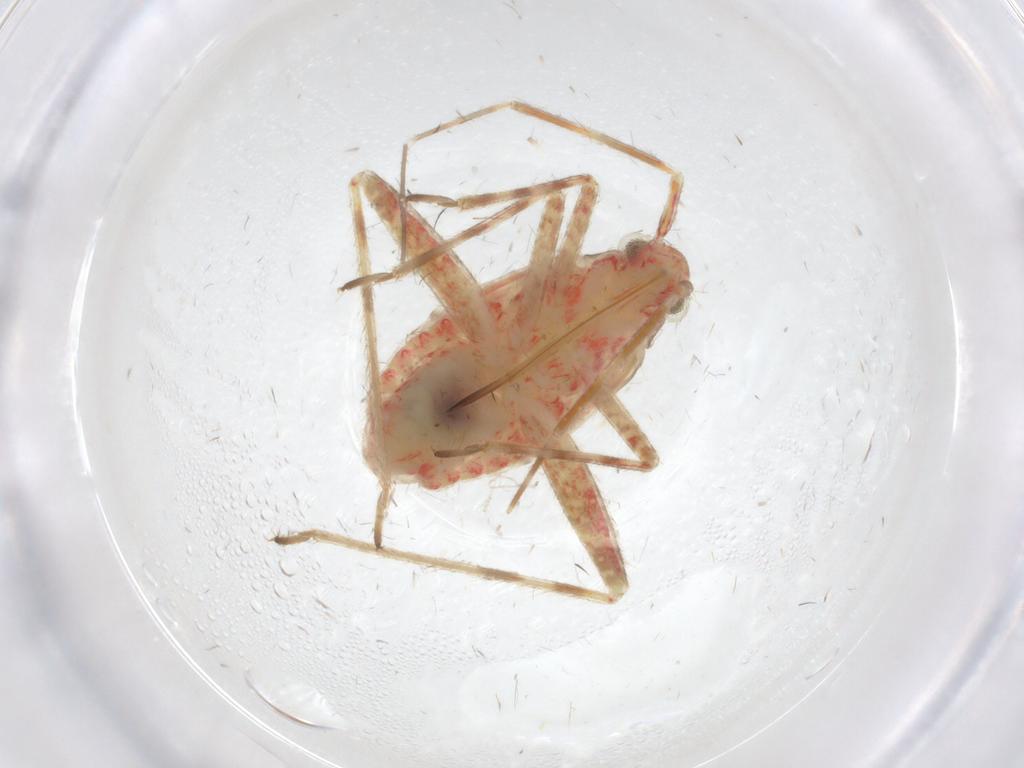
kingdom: Animalia
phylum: Arthropoda
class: Insecta
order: Hemiptera
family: Miridae
